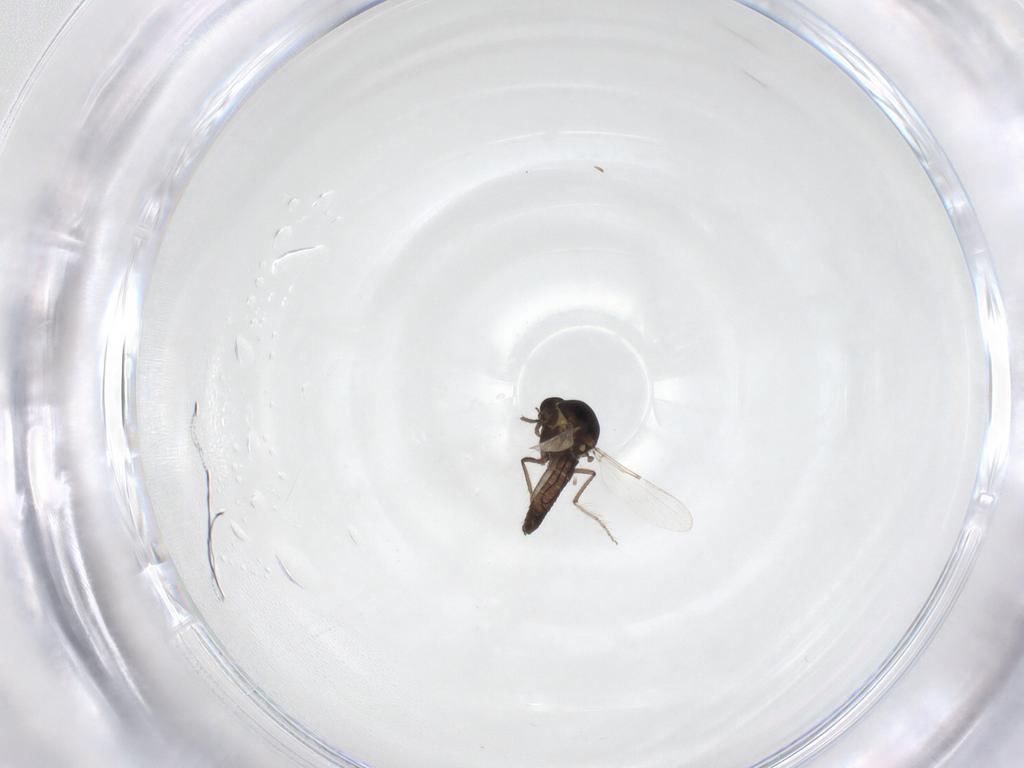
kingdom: Animalia
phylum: Arthropoda
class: Insecta
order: Diptera
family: Ceratopogonidae
